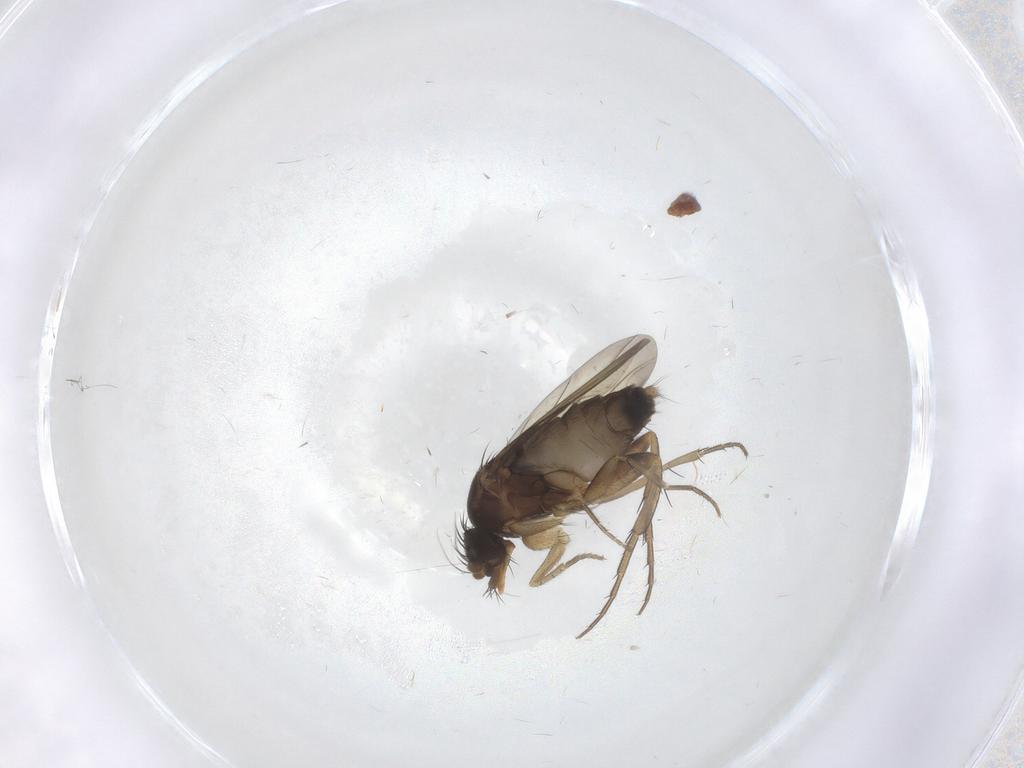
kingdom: Animalia
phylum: Arthropoda
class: Insecta
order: Diptera
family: Phoridae
